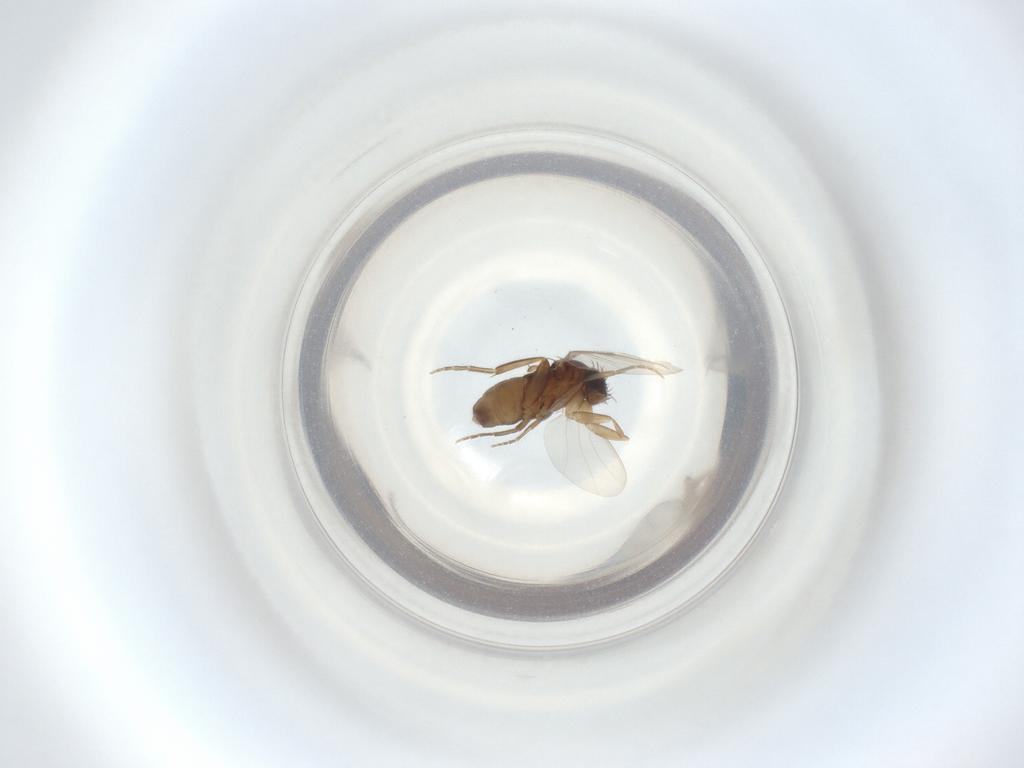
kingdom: Animalia
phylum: Arthropoda
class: Insecta
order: Diptera
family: Phoridae
